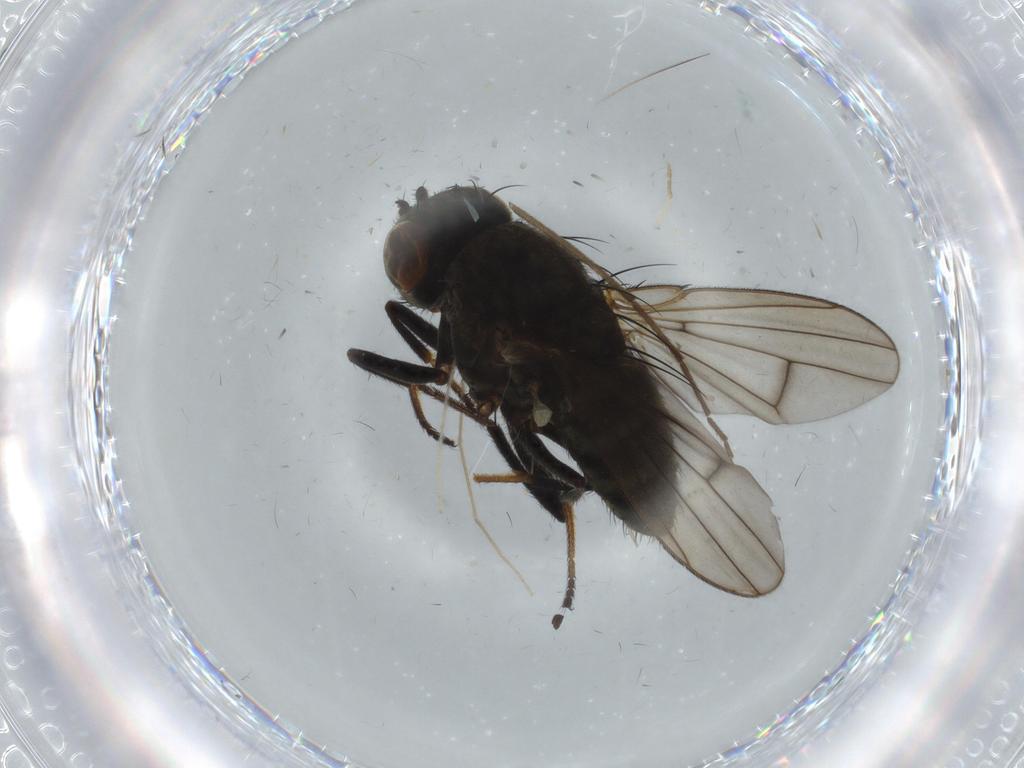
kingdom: Animalia
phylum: Arthropoda
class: Insecta
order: Diptera
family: Ephydridae
